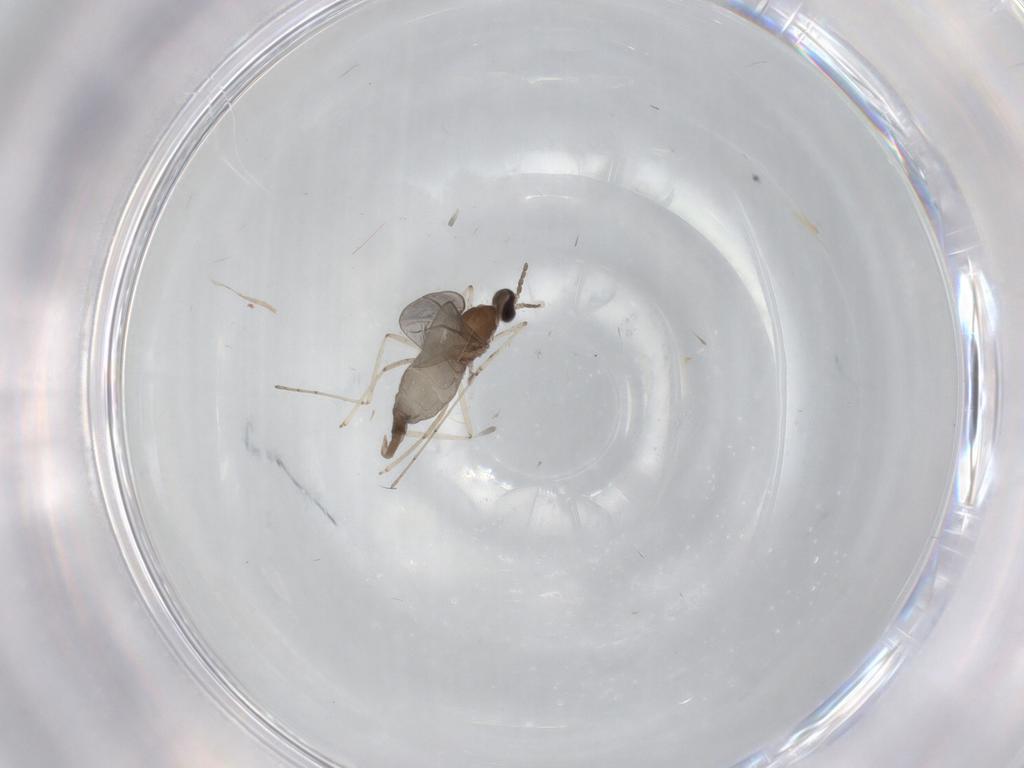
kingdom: Animalia
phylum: Arthropoda
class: Insecta
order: Diptera
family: Cecidomyiidae
